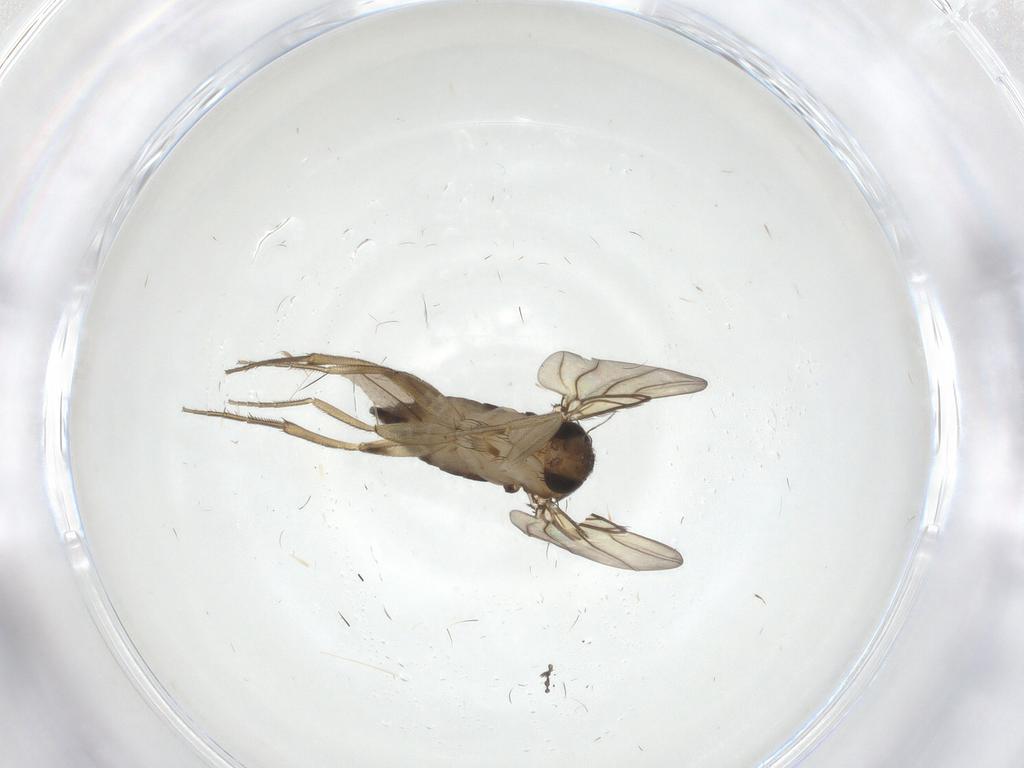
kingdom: Animalia
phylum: Arthropoda
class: Insecta
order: Diptera
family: Phoridae
